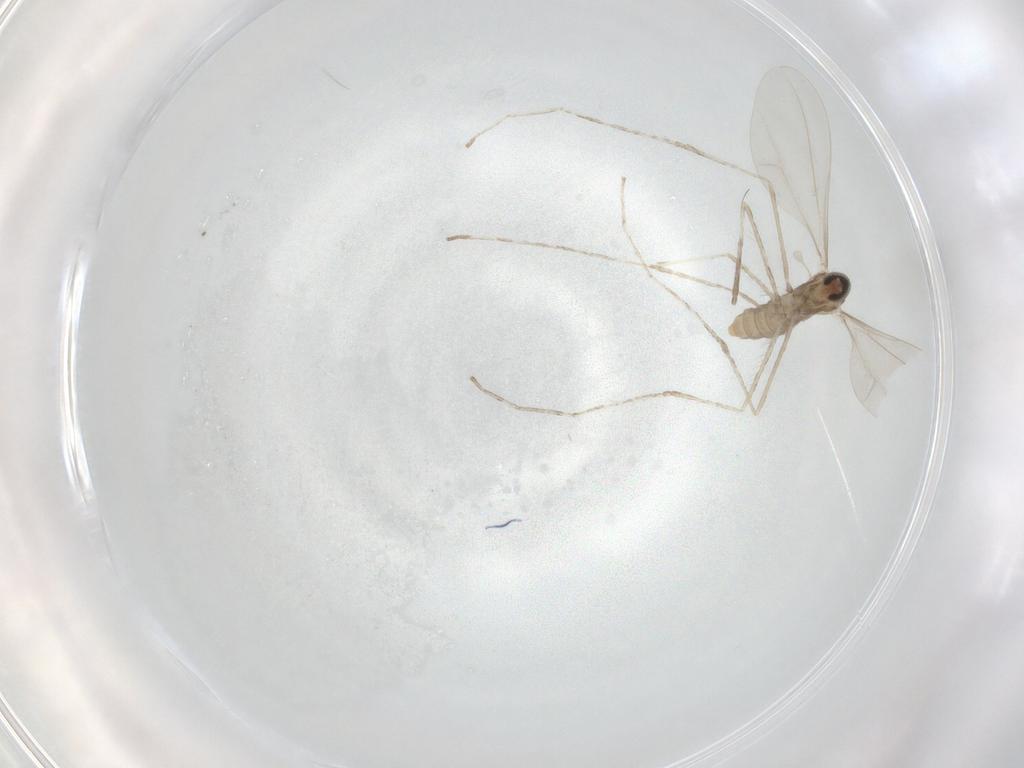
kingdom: Animalia
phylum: Arthropoda
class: Insecta
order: Diptera
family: Cecidomyiidae
